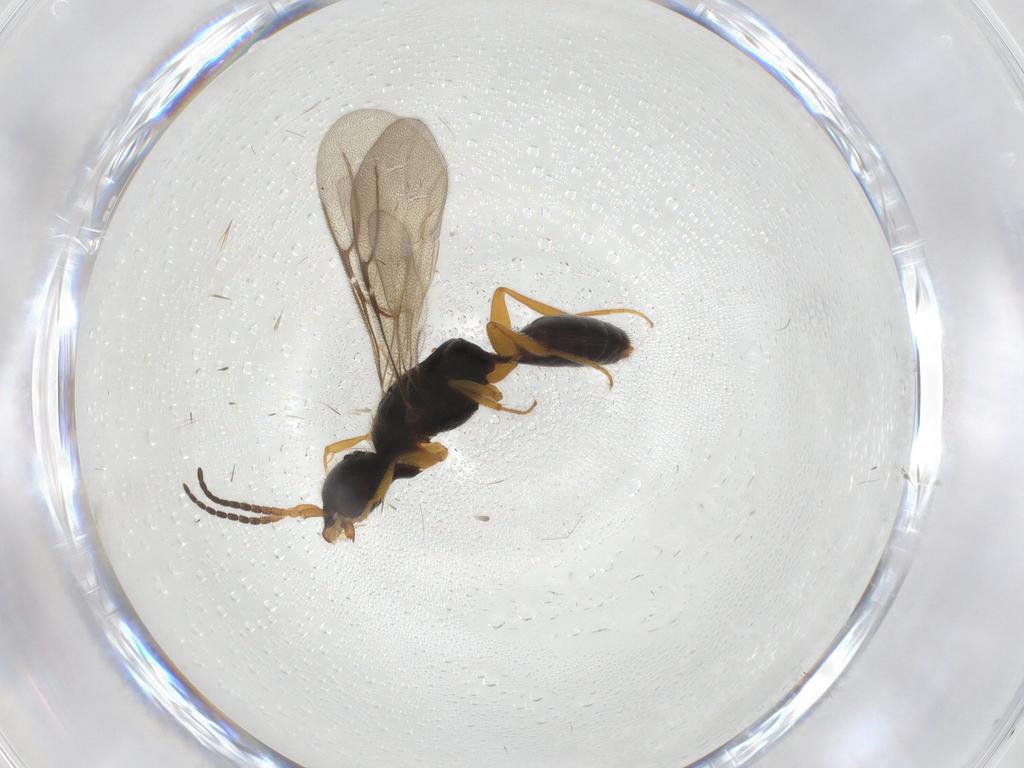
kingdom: Animalia
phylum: Arthropoda
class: Insecta
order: Hymenoptera
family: Bethylidae
